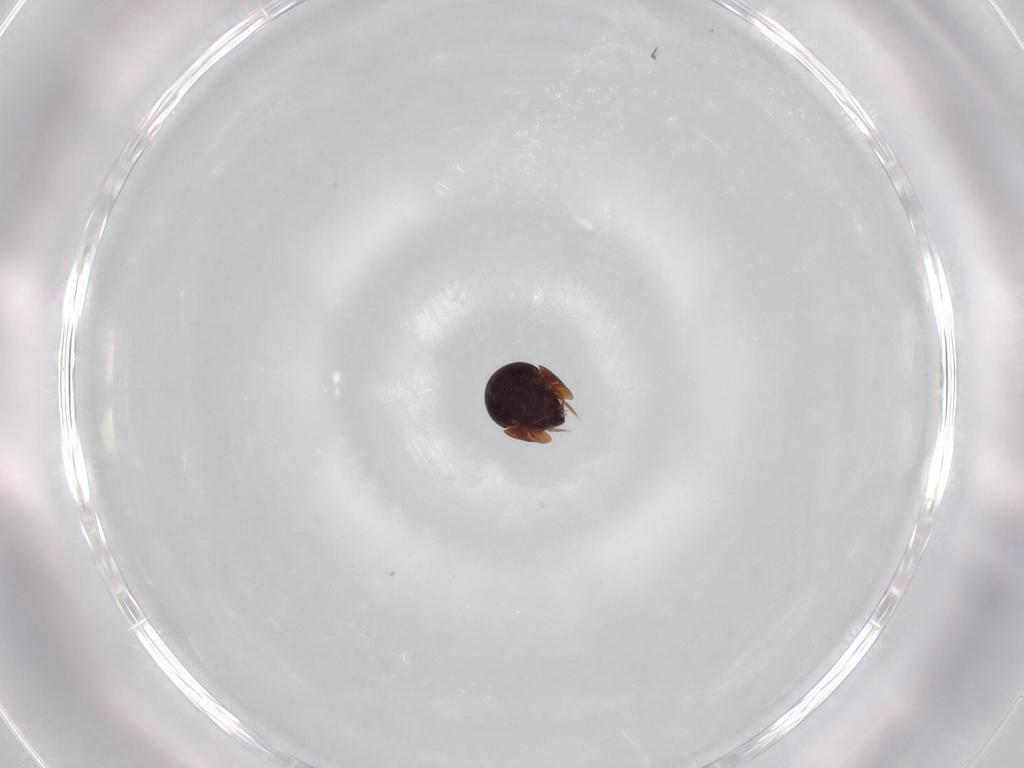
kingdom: Animalia
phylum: Arthropoda
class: Arachnida
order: Sarcoptiformes
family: Galumnidae
